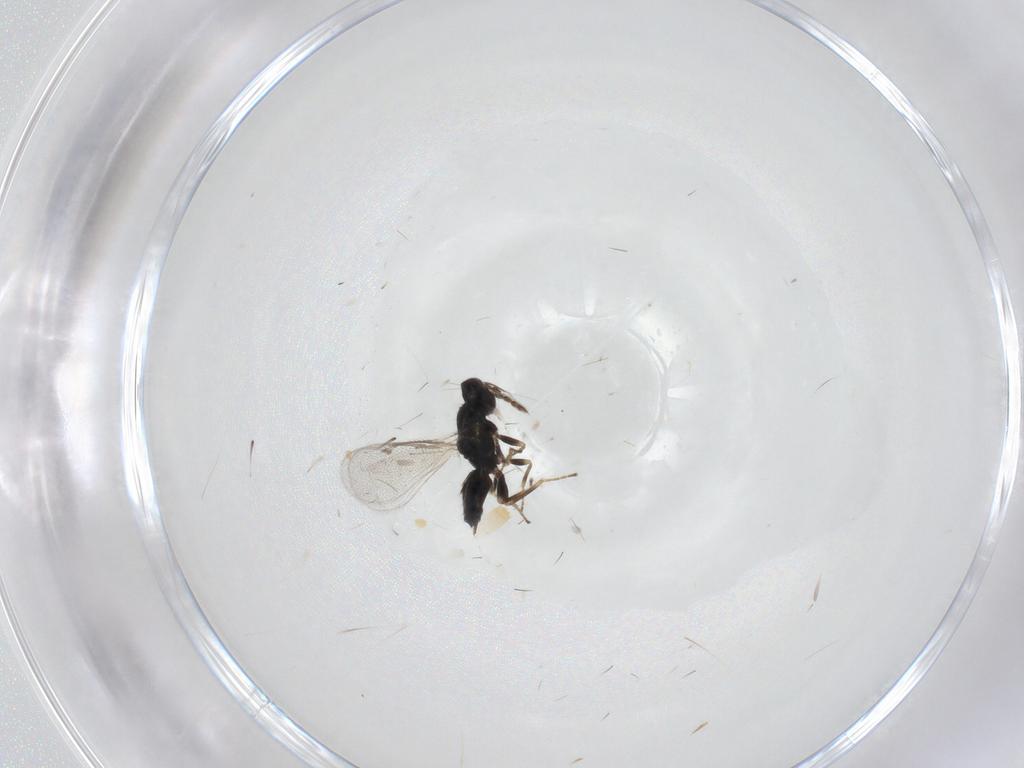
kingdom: Animalia
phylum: Arthropoda
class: Insecta
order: Hymenoptera
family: Eulophidae
